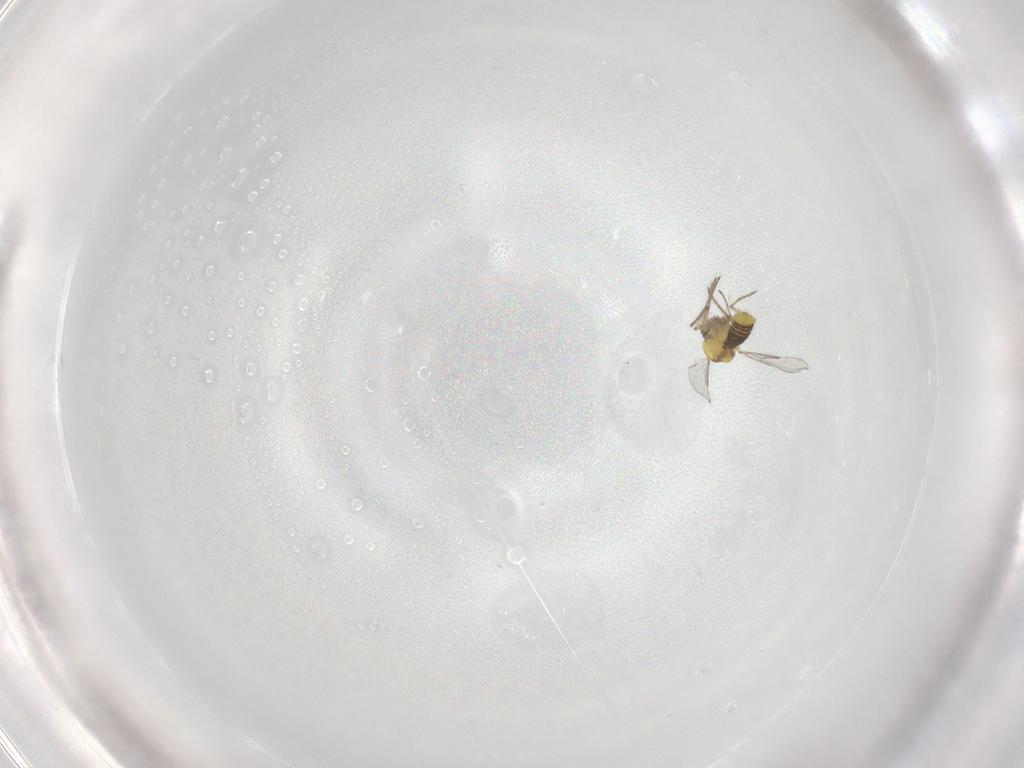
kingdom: Animalia
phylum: Arthropoda
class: Insecta
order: Diptera
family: Ceratopogonidae
